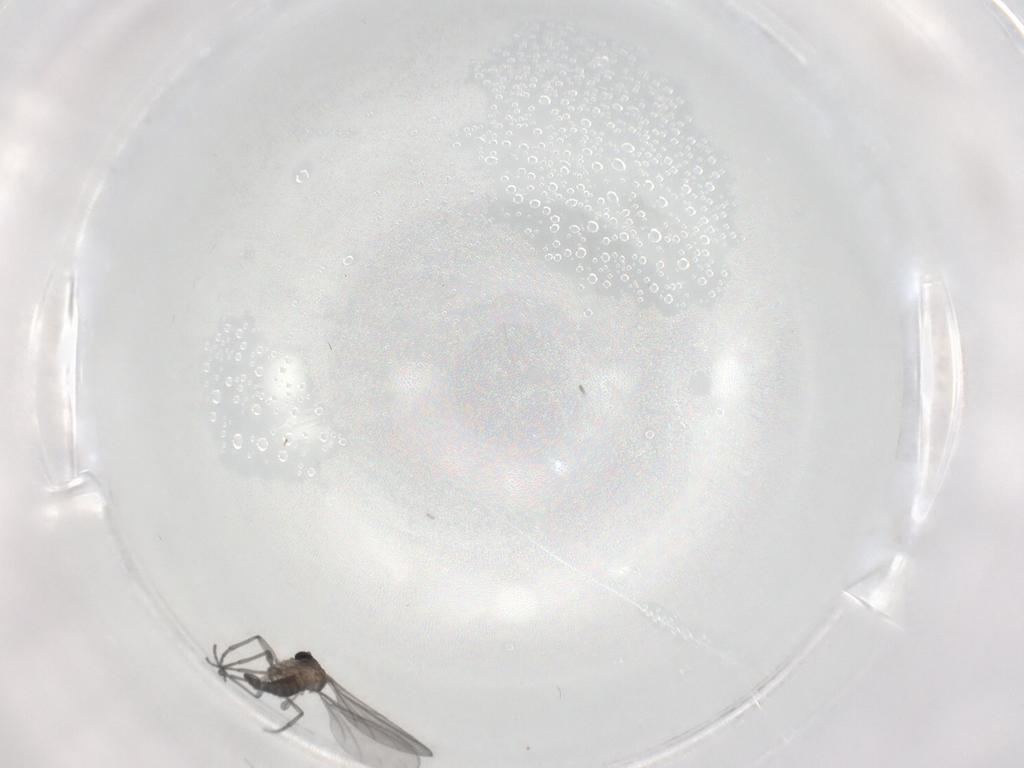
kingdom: Animalia
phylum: Arthropoda
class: Insecta
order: Diptera
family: Sciaridae
